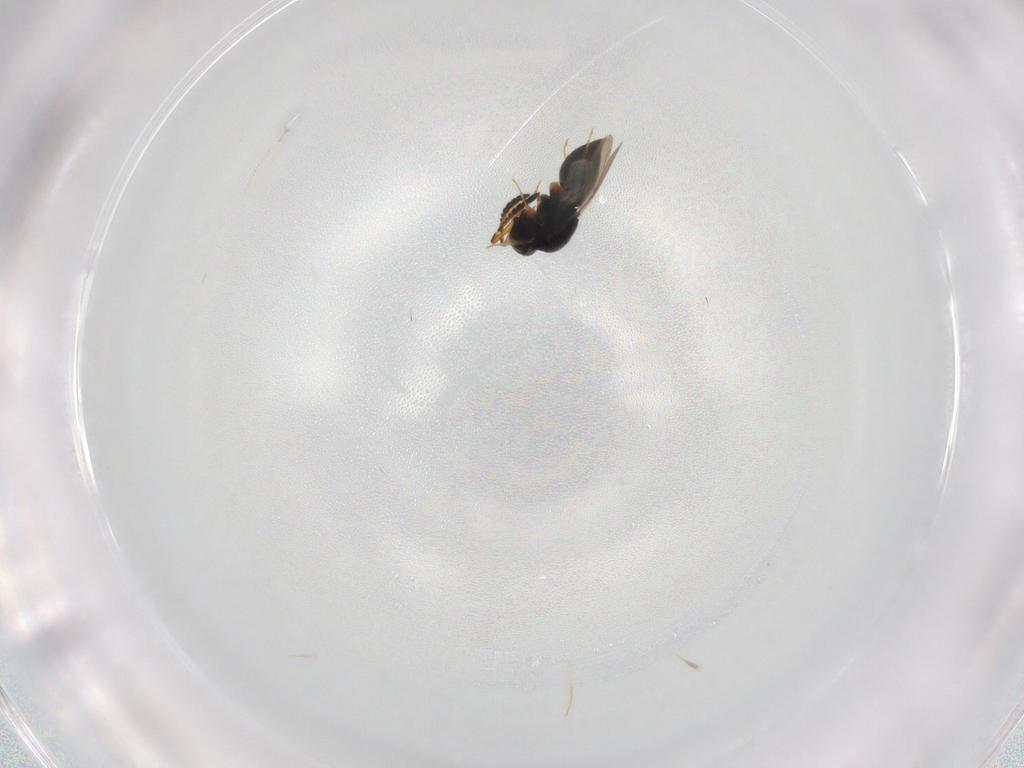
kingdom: Animalia
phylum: Arthropoda
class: Insecta
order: Hymenoptera
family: Ceraphronidae
